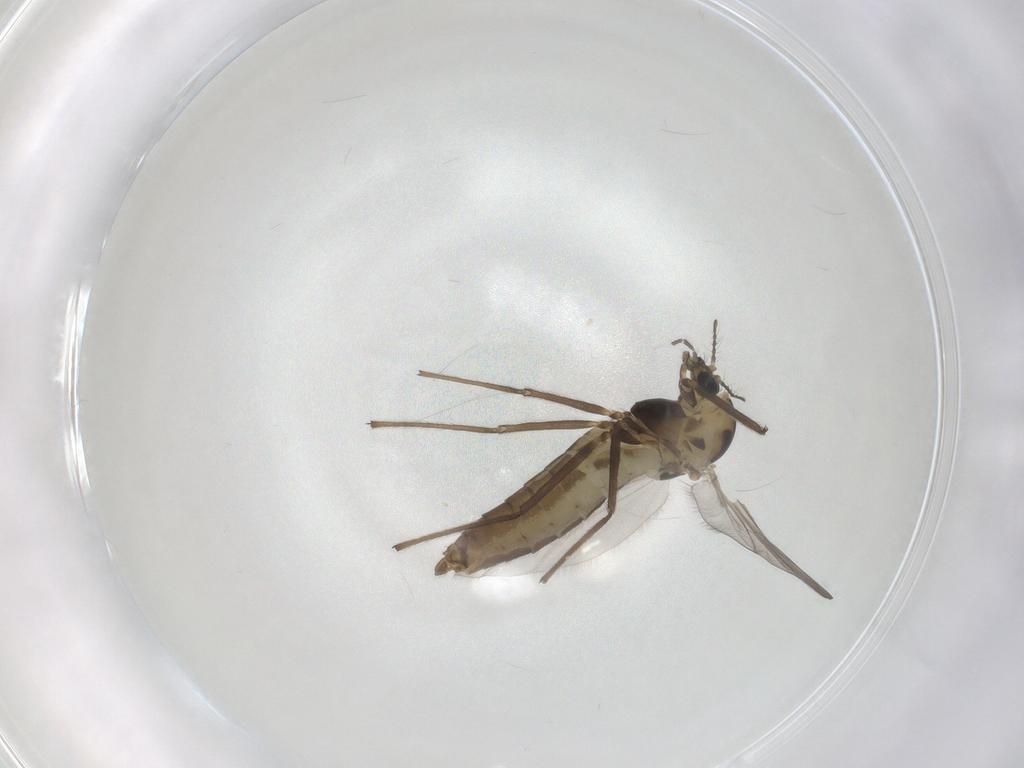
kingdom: Animalia
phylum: Arthropoda
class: Insecta
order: Diptera
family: Chironomidae
